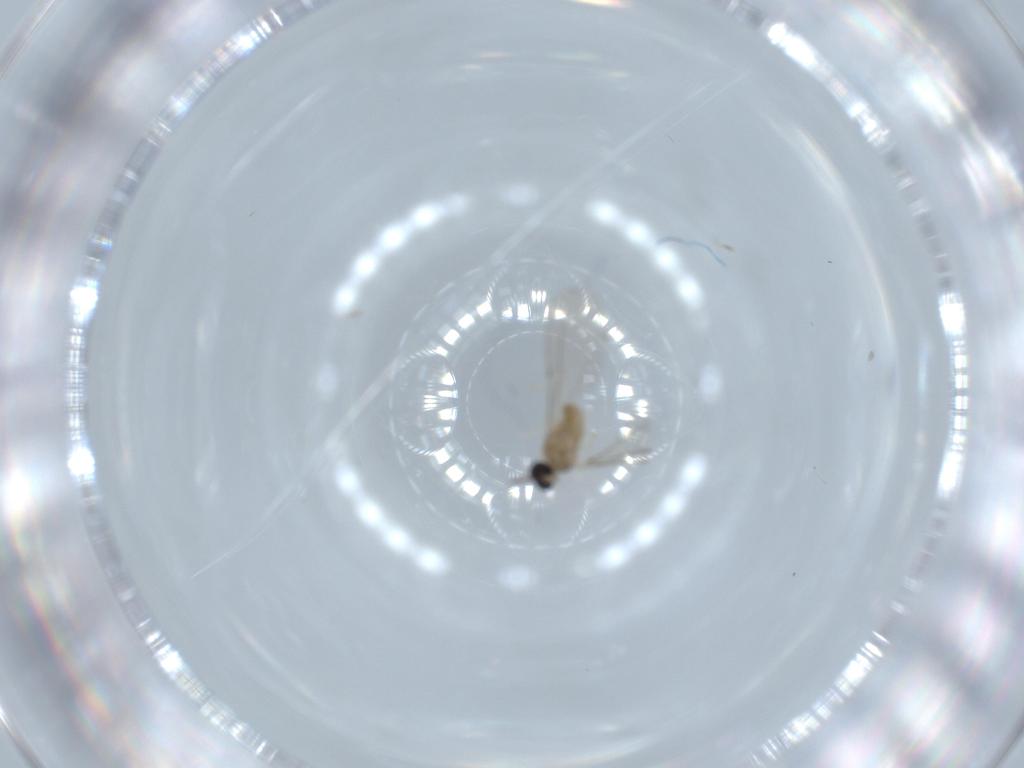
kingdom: Animalia
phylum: Arthropoda
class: Insecta
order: Diptera
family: Cecidomyiidae
